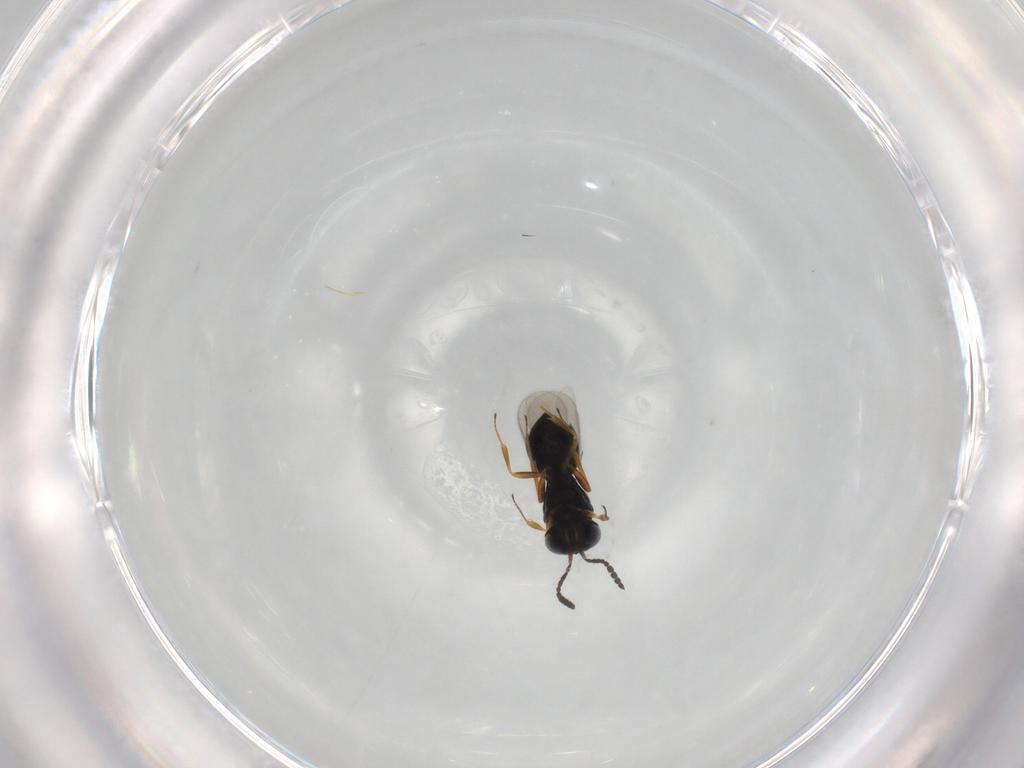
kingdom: Animalia
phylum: Arthropoda
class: Insecta
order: Hymenoptera
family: Scelionidae
